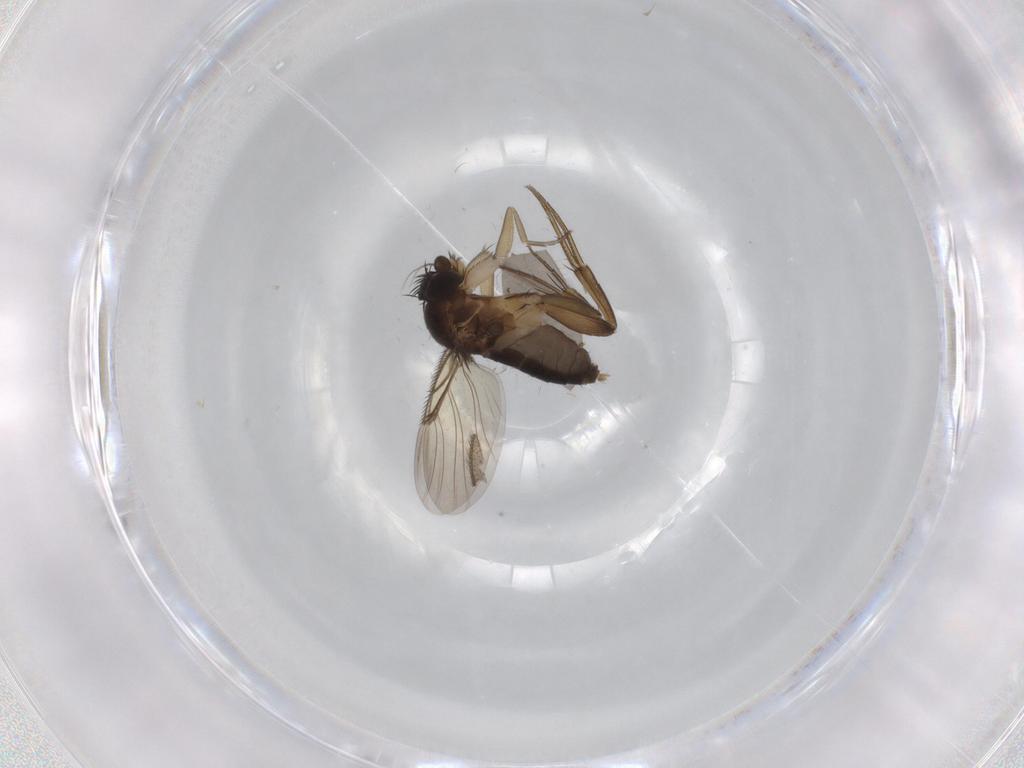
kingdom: Animalia
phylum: Arthropoda
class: Insecta
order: Diptera
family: Phoridae
